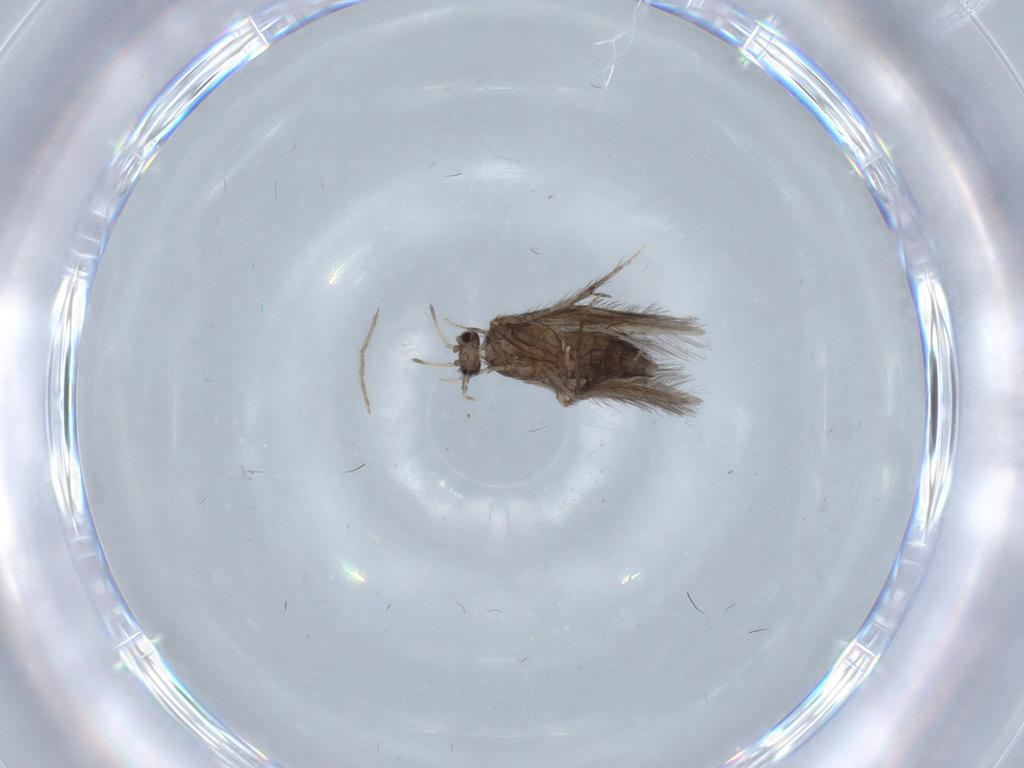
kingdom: Animalia
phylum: Arthropoda
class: Insecta
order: Trichoptera
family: Hydroptilidae
